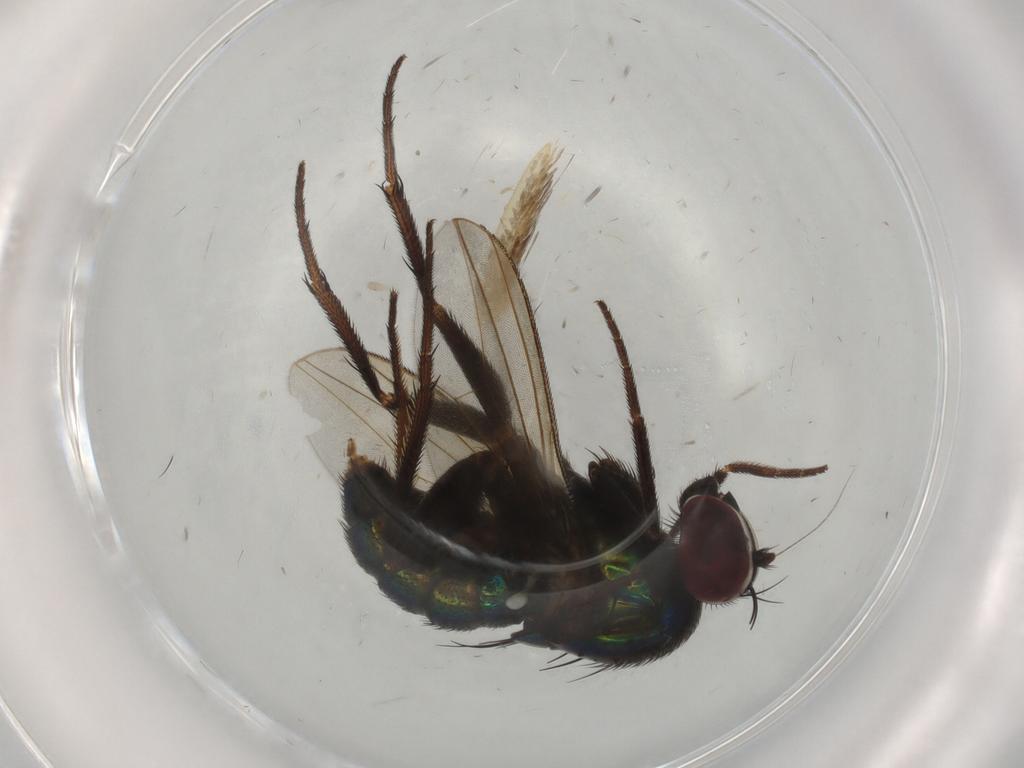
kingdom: Animalia
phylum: Arthropoda
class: Insecta
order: Diptera
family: Dolichopodidae
